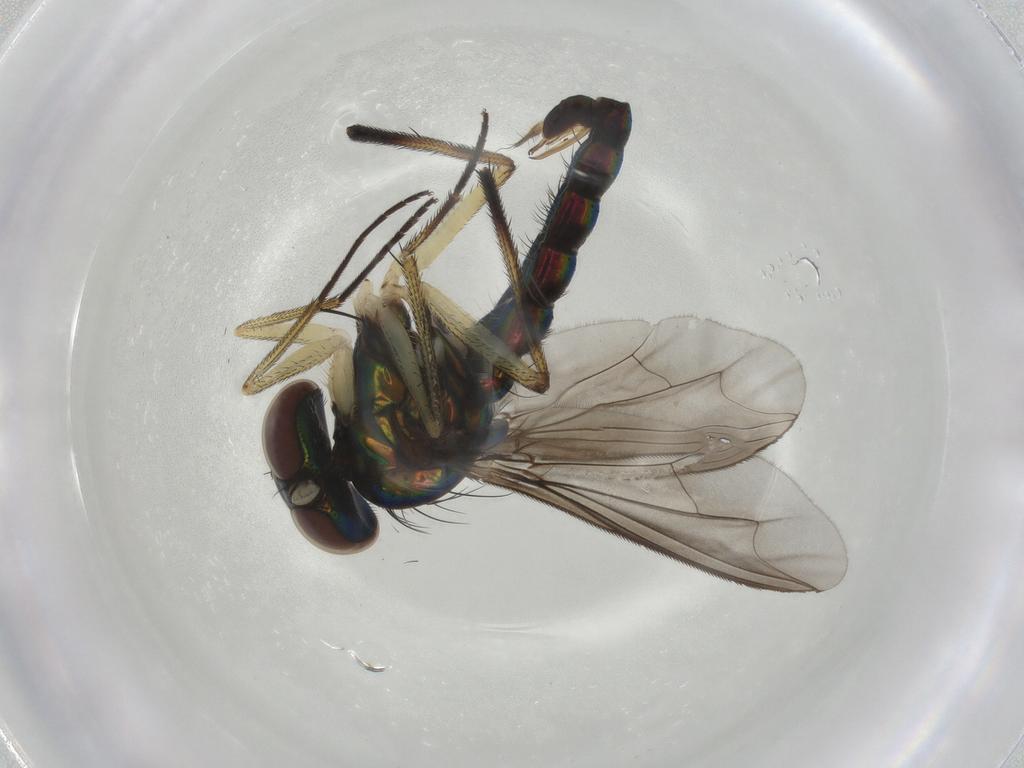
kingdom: Animalia
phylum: Arthropoda
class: Insecta
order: Diptera
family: Dolichopodidae
